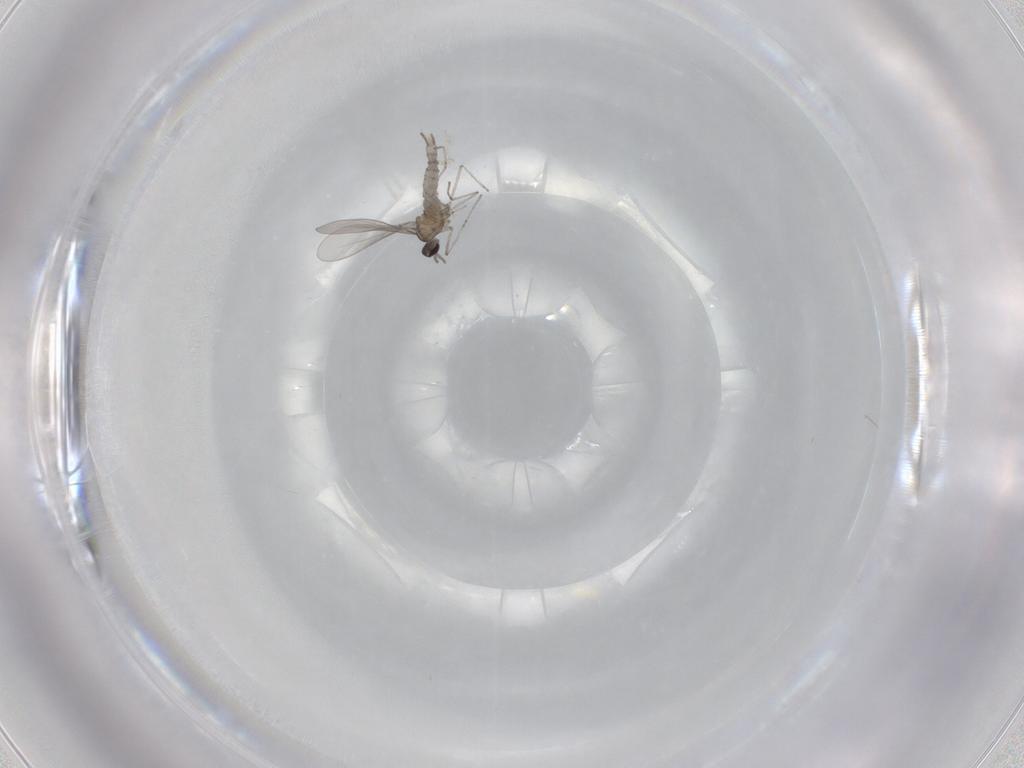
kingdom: Animalia
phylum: Arthropoda
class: Insecta
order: Diptera
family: Cecidomyiidae
